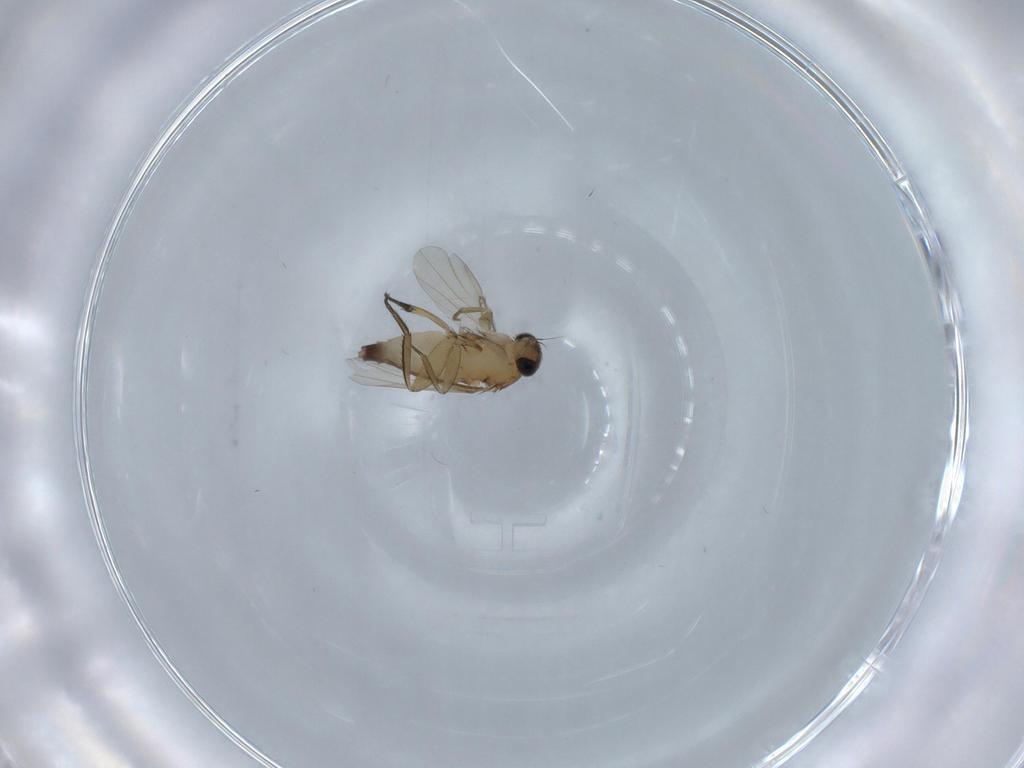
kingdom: Animalia
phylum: Arthropoda
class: Insecta
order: Diptera
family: Phoridae
